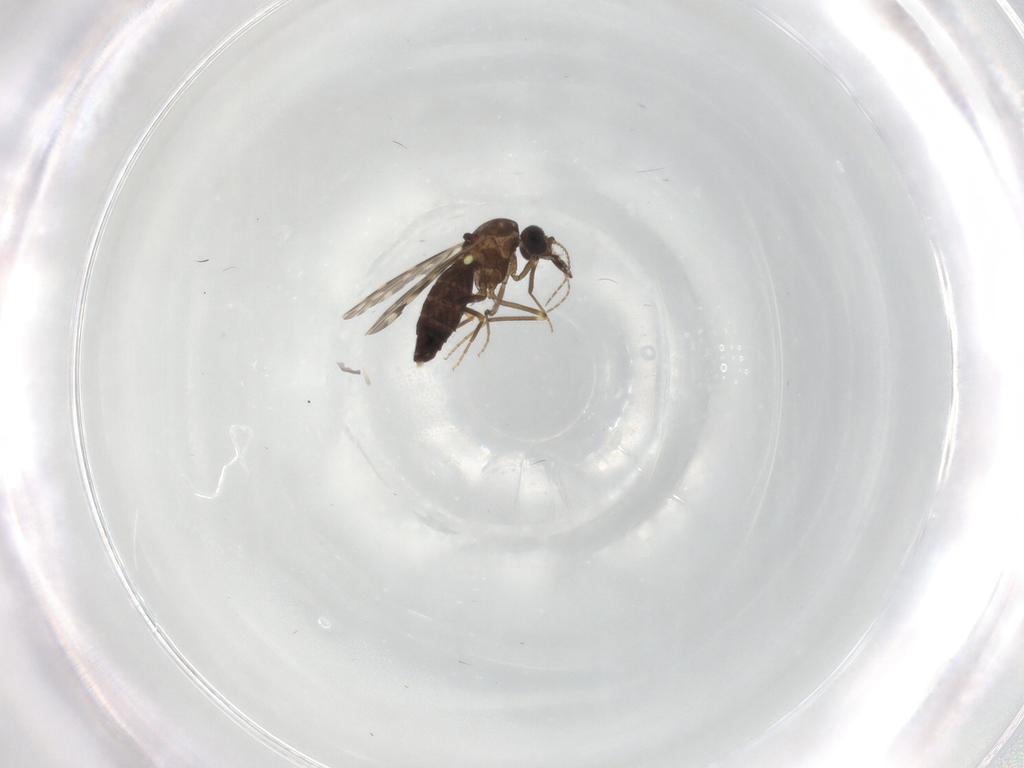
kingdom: Animalia
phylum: Arthropoda
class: Insecta
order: Diptera
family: Ceratopogonidae
